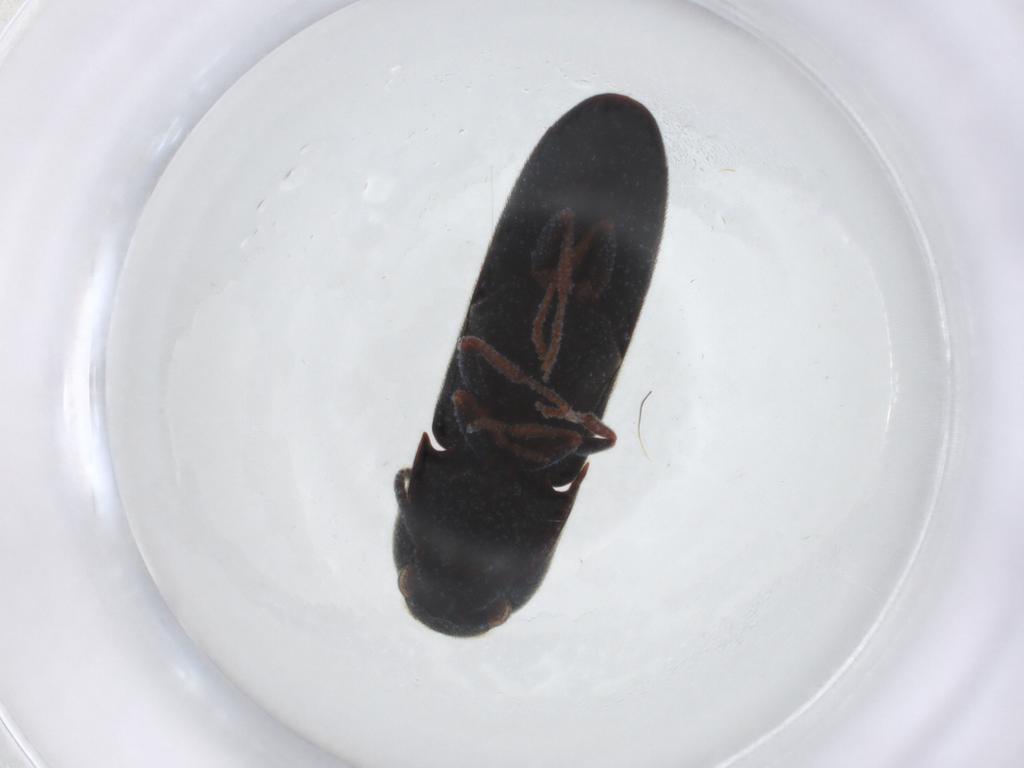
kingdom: Animalia
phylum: Arthropoda
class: Insecta
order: Coleoptera
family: Eucnemidae
